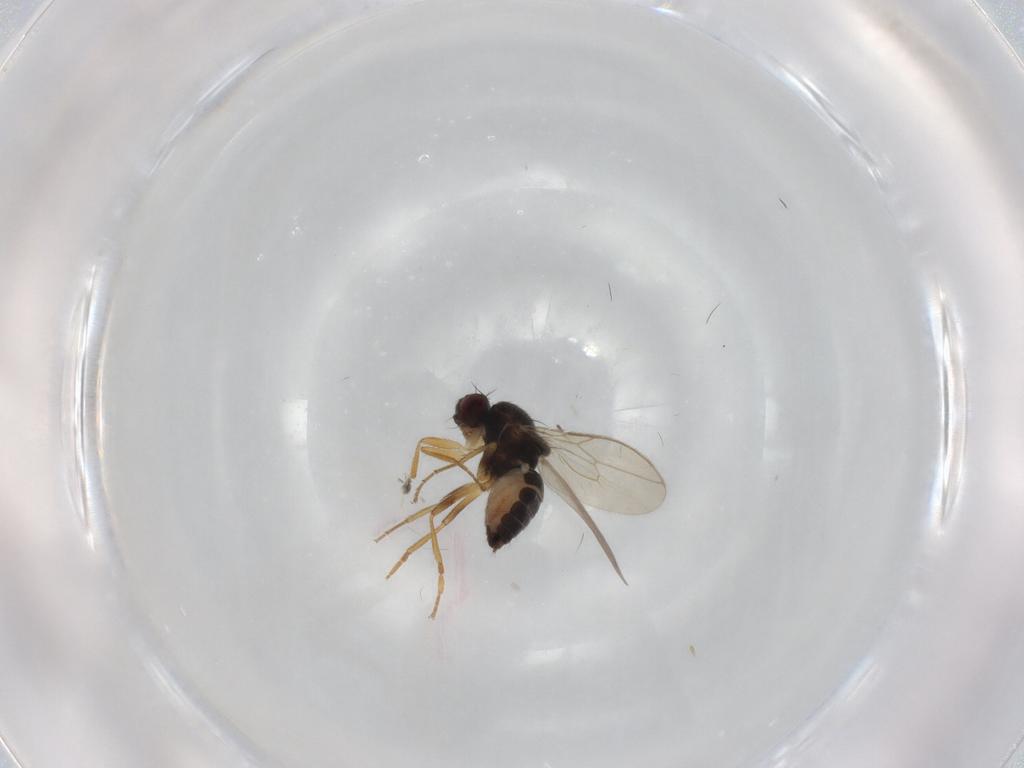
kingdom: Animalia
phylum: Arthropoda
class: Insecta
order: Diptera
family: Sphaeroceridae
